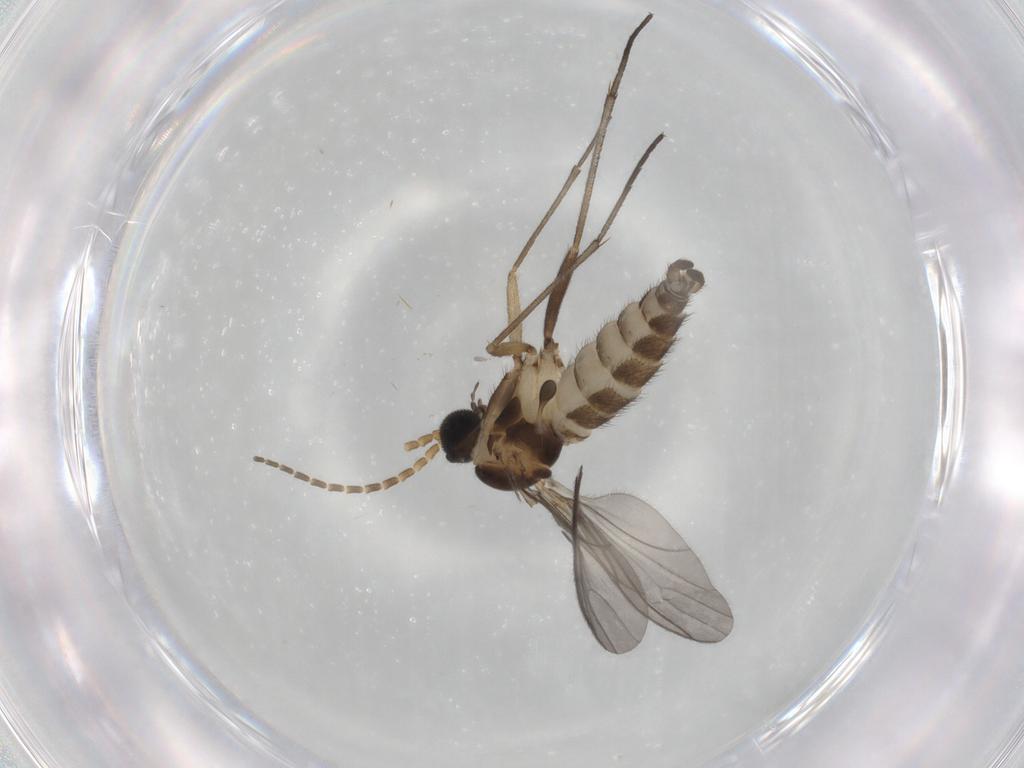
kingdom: Animalia
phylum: Arthropoda
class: Insecta
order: Diptera
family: Sciaridae
